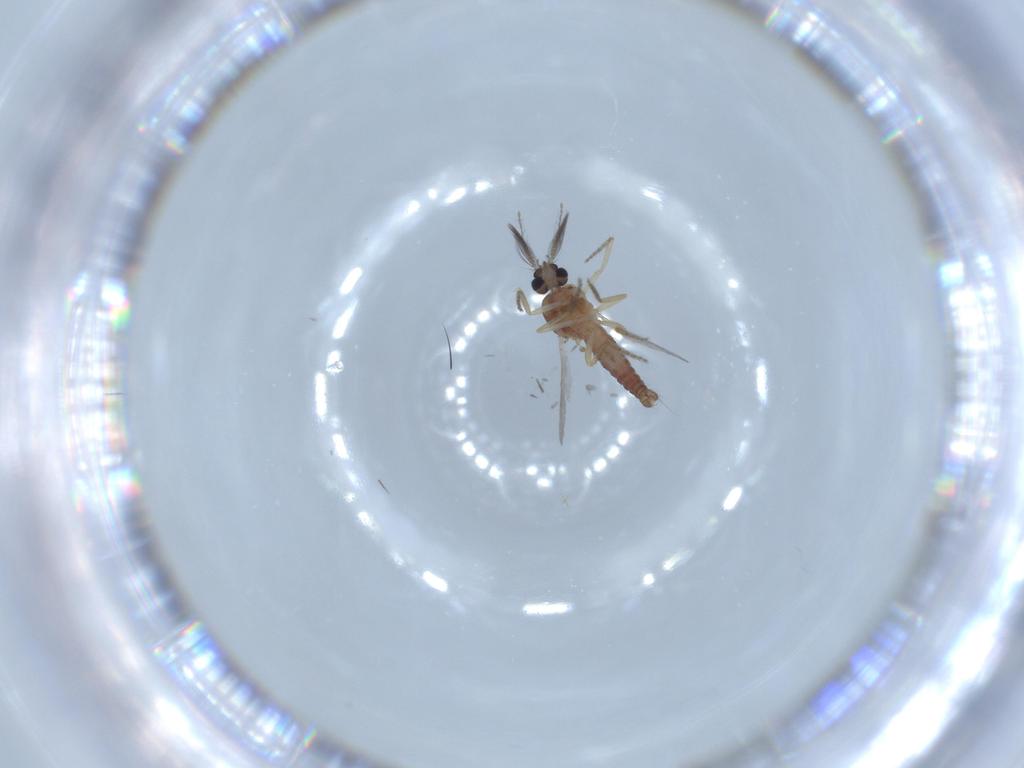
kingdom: Animalia
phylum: Arthropoda
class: Insecta
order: Diptera
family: Ceratopogonidae
